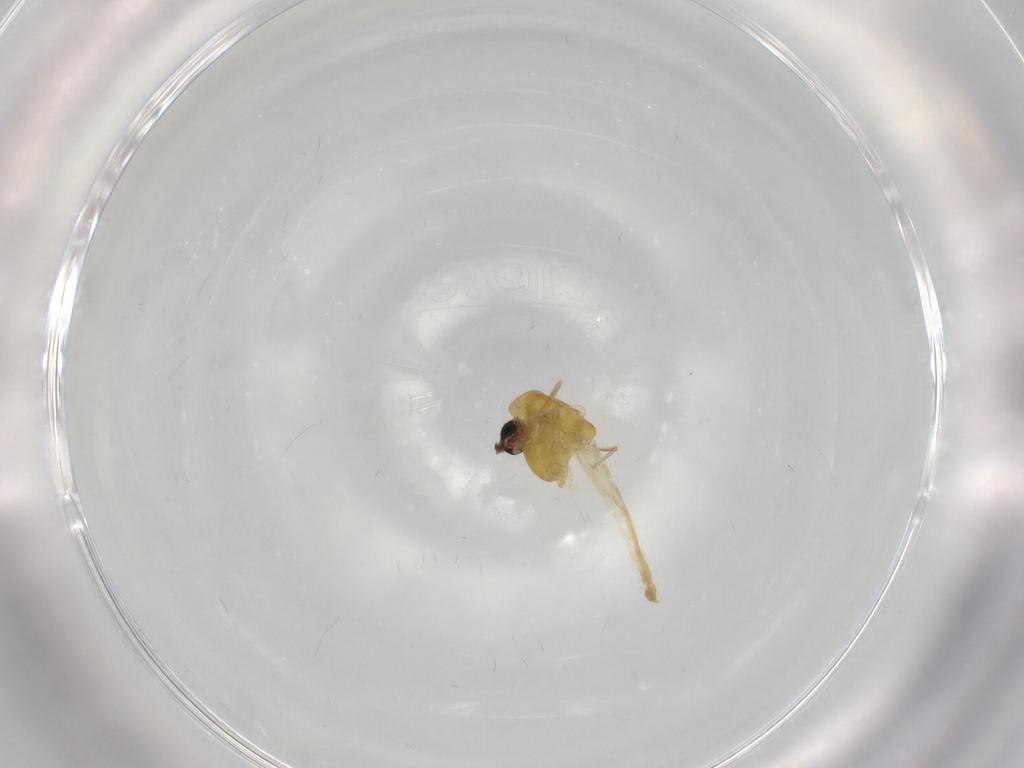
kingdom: Animalia
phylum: Arthropoda
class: Insecta
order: Diptera
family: Chironomidae
